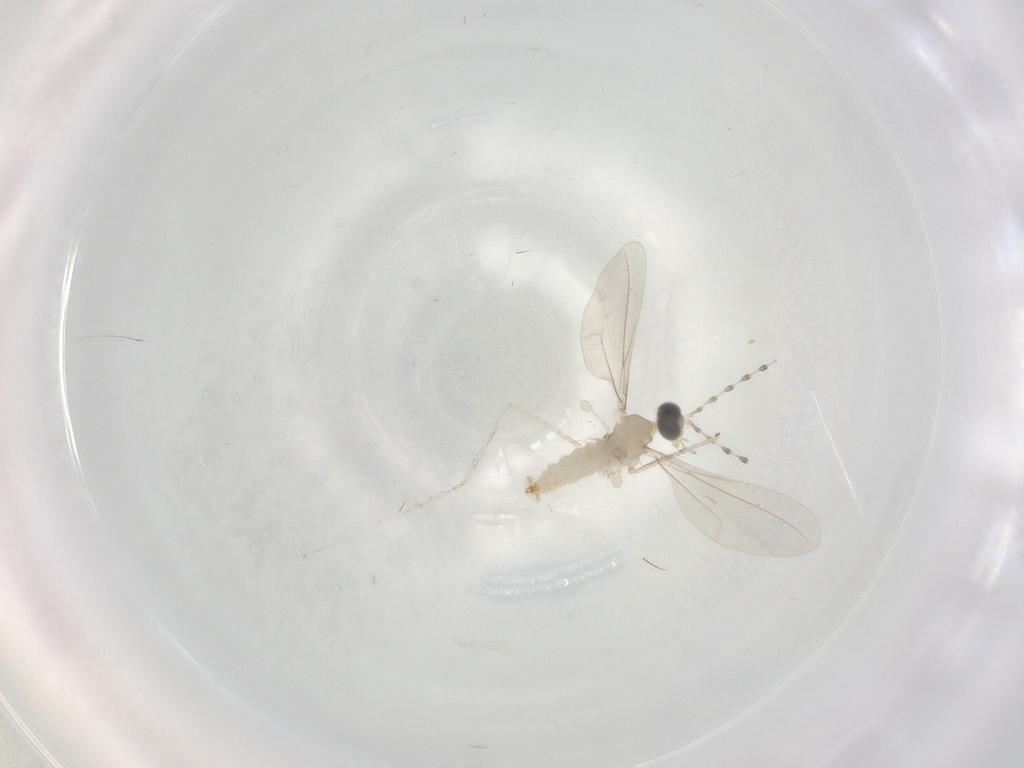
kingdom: Animalia
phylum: Arthropoda
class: Insecta
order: Diptera
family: Cecidomyiidae
